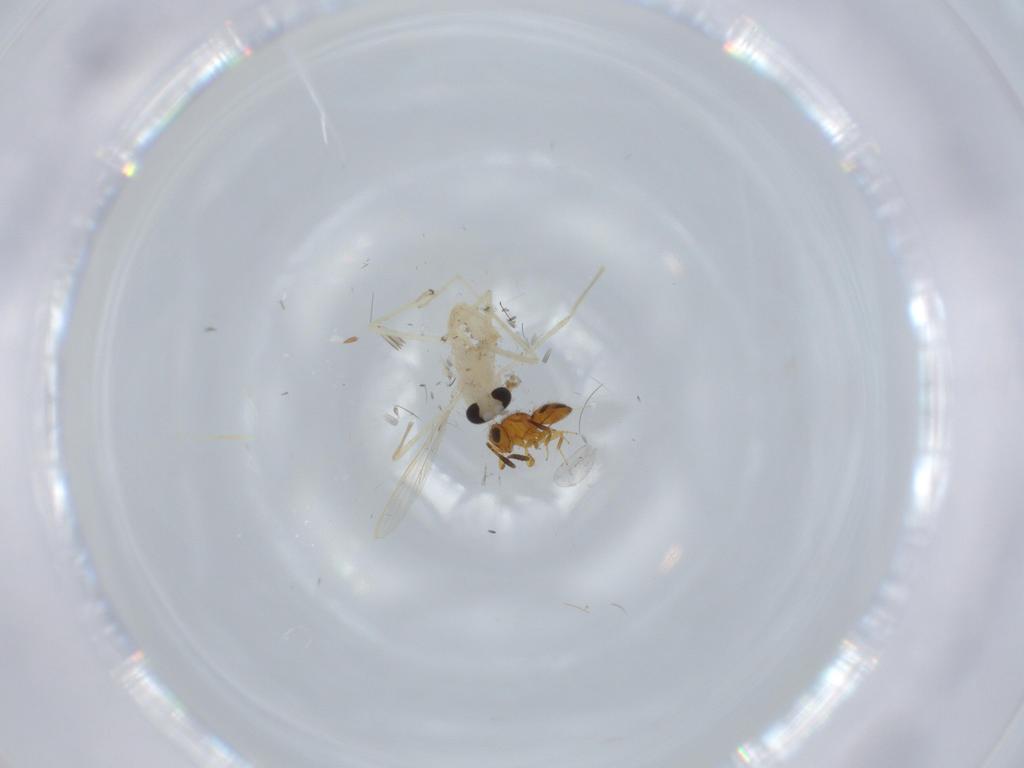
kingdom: Animalia
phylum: Arthropoda
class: Insecta
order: Diptera
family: Chironomidae
